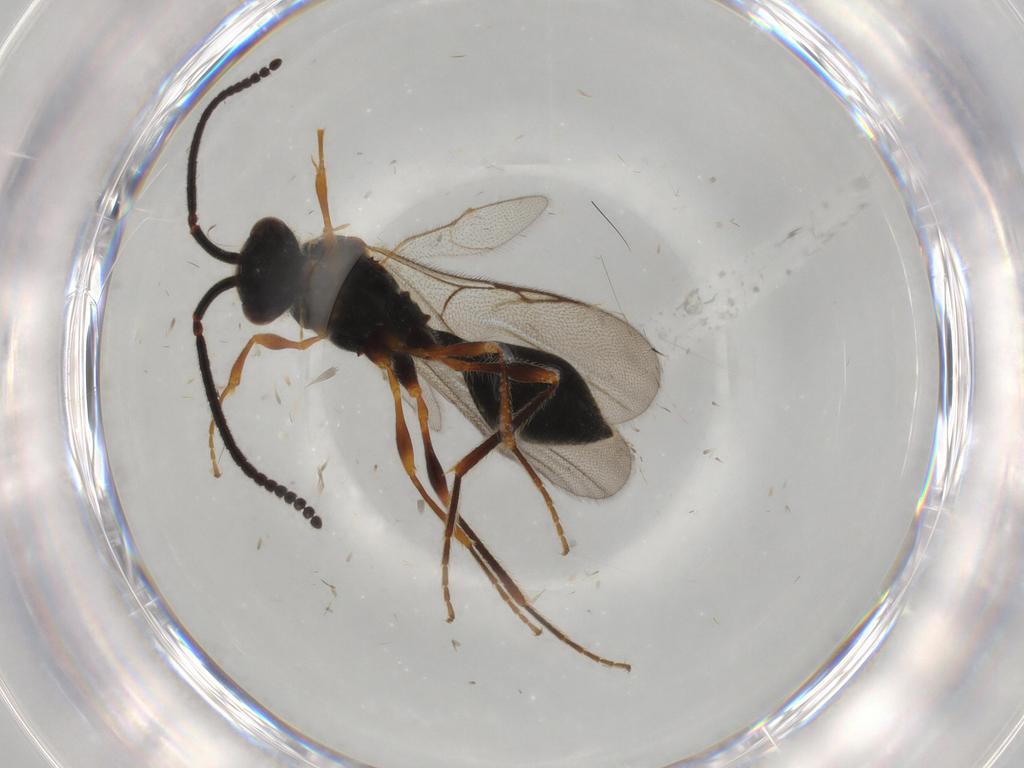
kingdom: Animalia
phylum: Arthropoda
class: Insecta
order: Hymenoptera
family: Diapriidae
